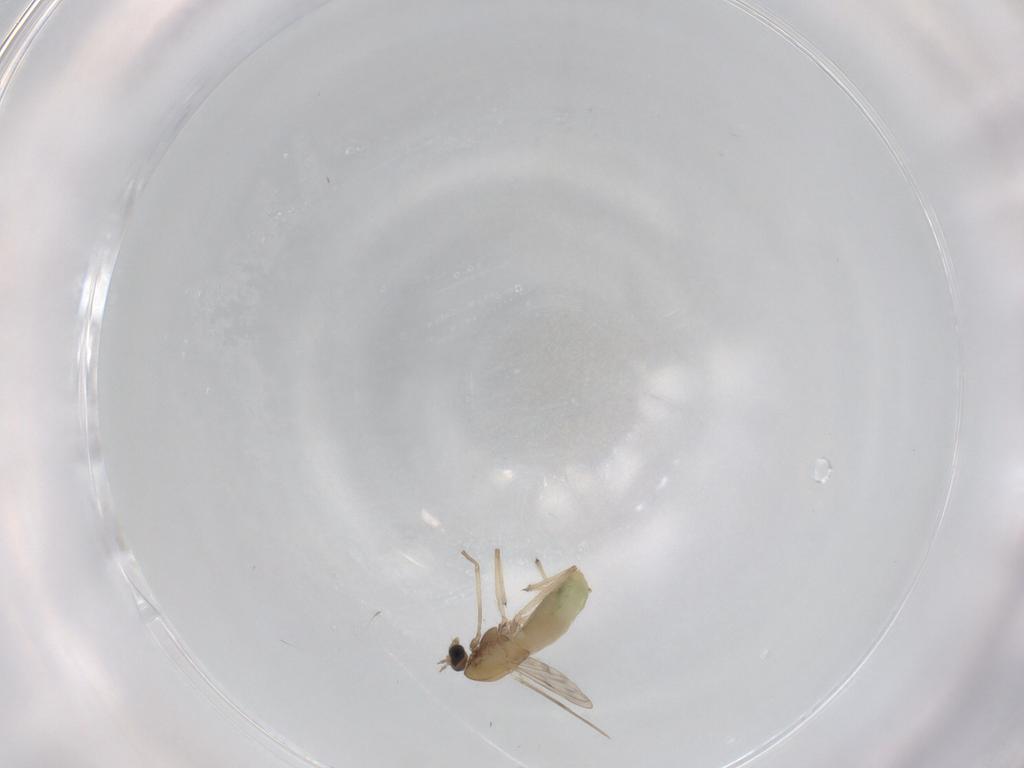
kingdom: Animalia
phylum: Arthropoda
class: Insecta
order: Diptera
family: Chironomidae
